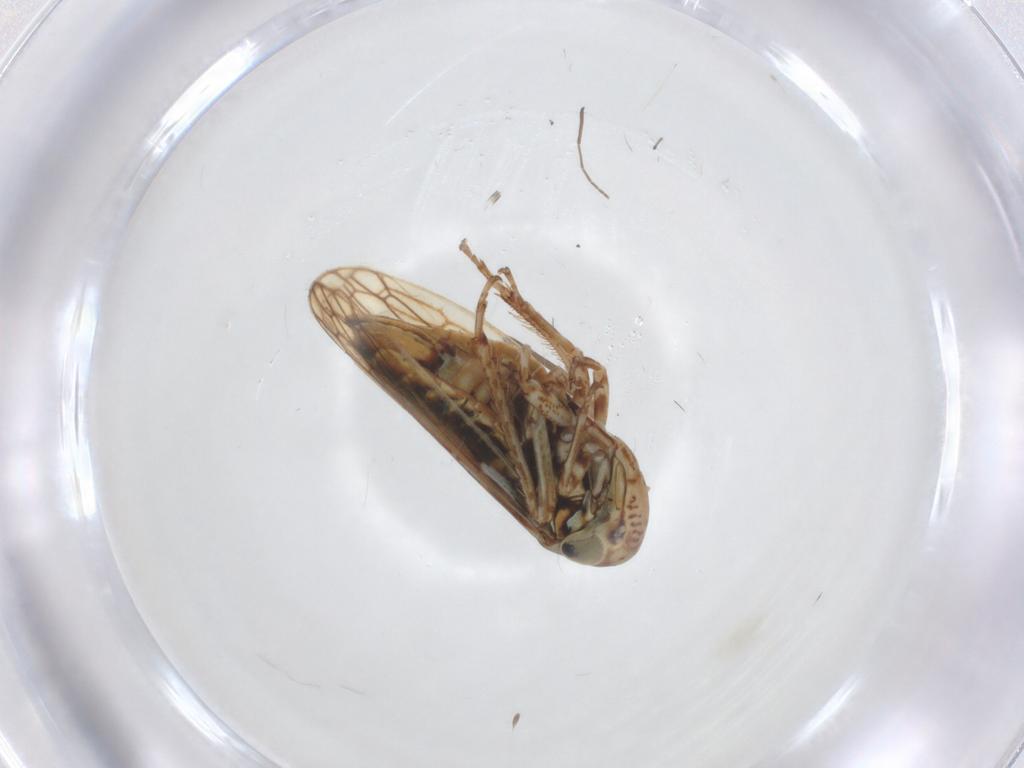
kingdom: Animalia
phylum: Arthropoda
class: Insecta
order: Hemiptera
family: Cicadellidae
